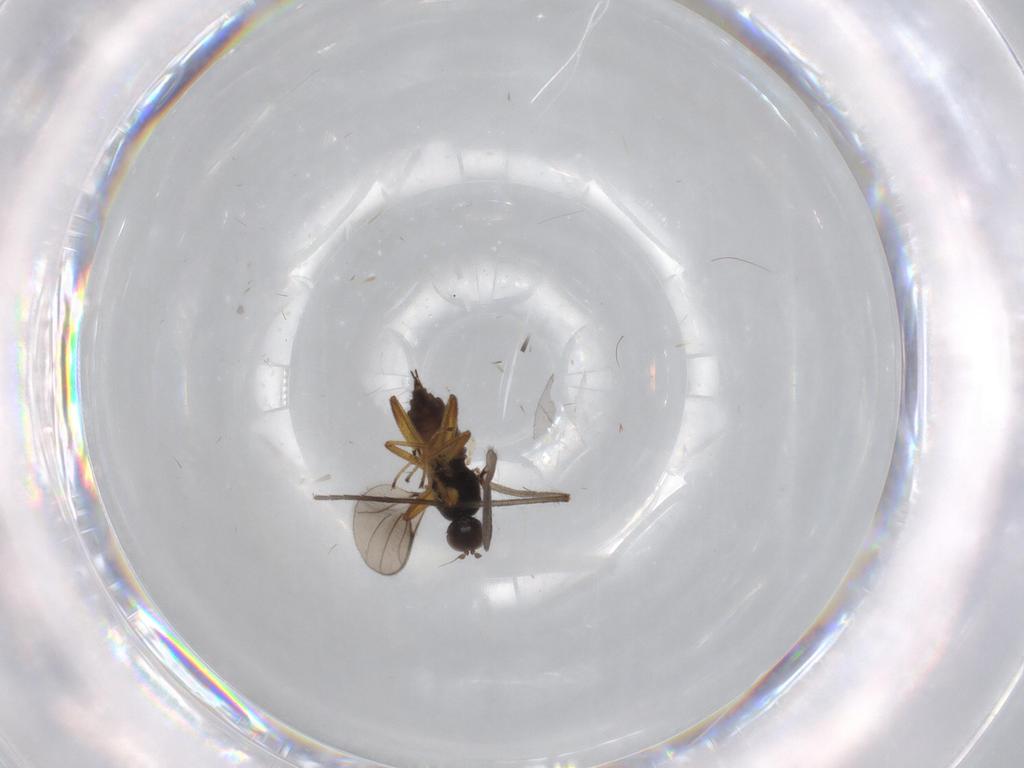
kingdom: Animalia
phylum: Arthropoda
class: Insecta
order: Diptera
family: Sciaridae
